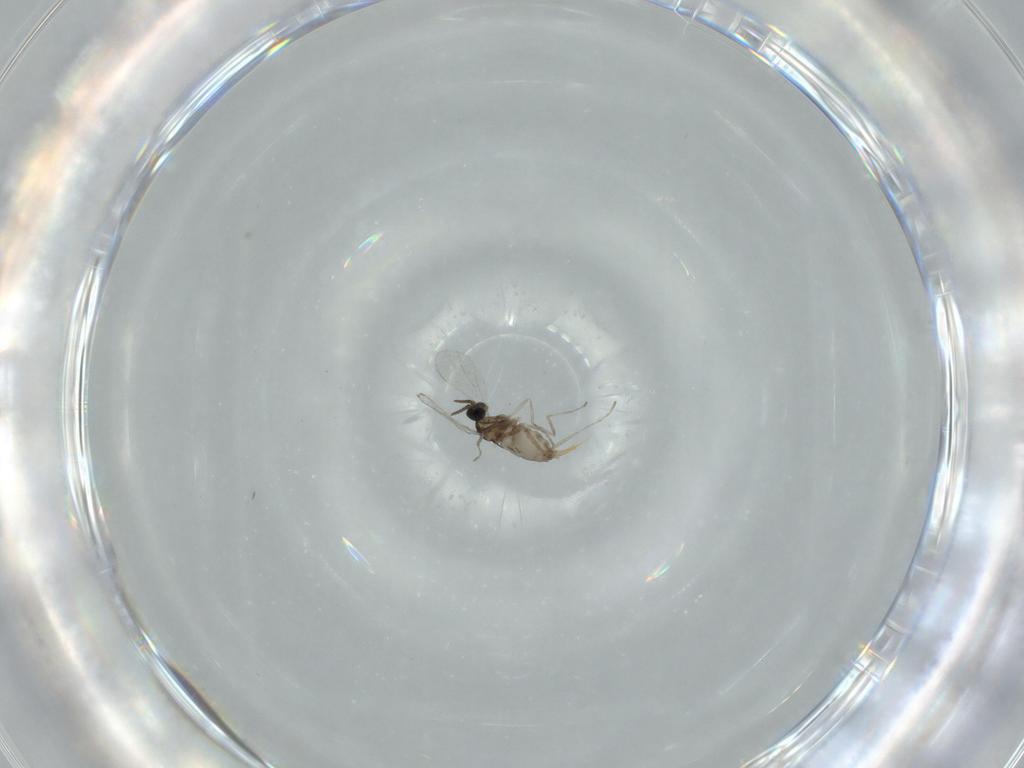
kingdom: Animalia
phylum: Arthropoda
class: Insecta
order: Diptera
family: Cecidomyiidae
